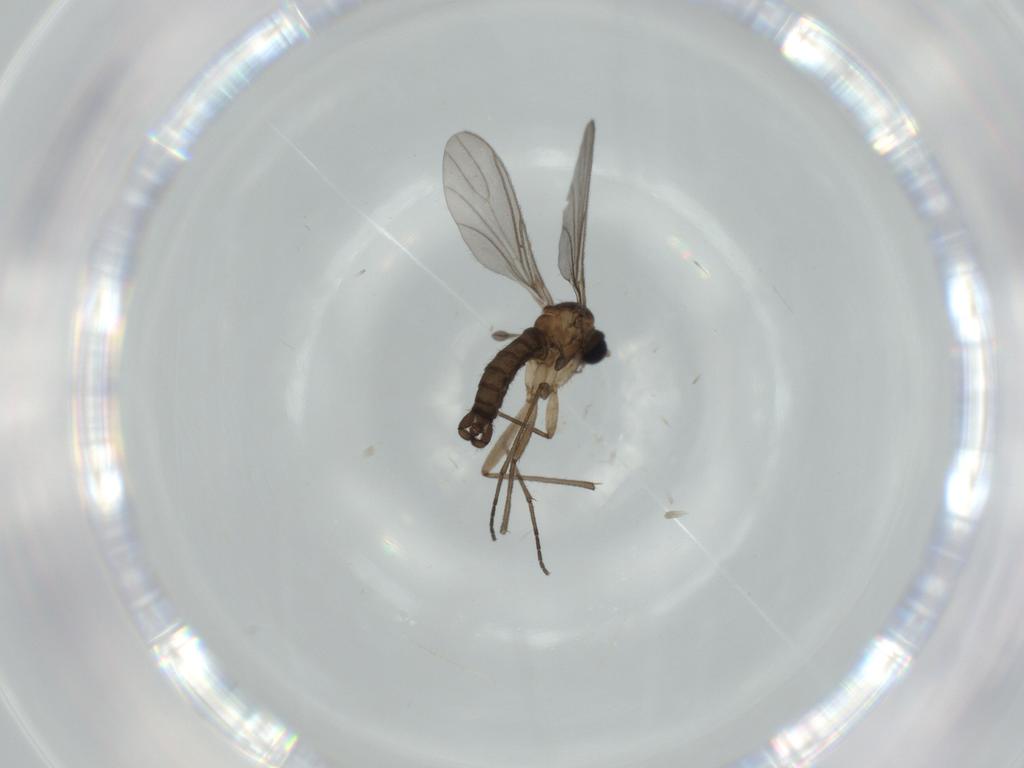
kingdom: Animalia
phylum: Arthropoda
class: Insecta
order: Diptera
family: Sciaridae
